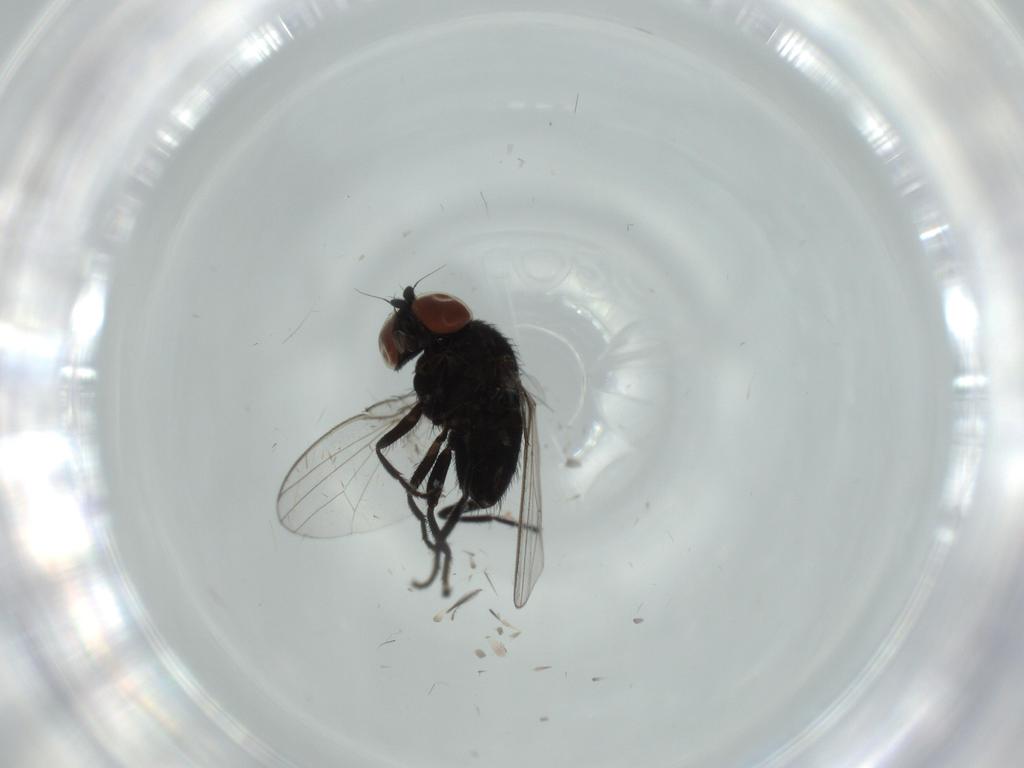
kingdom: Animalia
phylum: Arthropoda
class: Insecta
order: Diptera
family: Milichiidae
